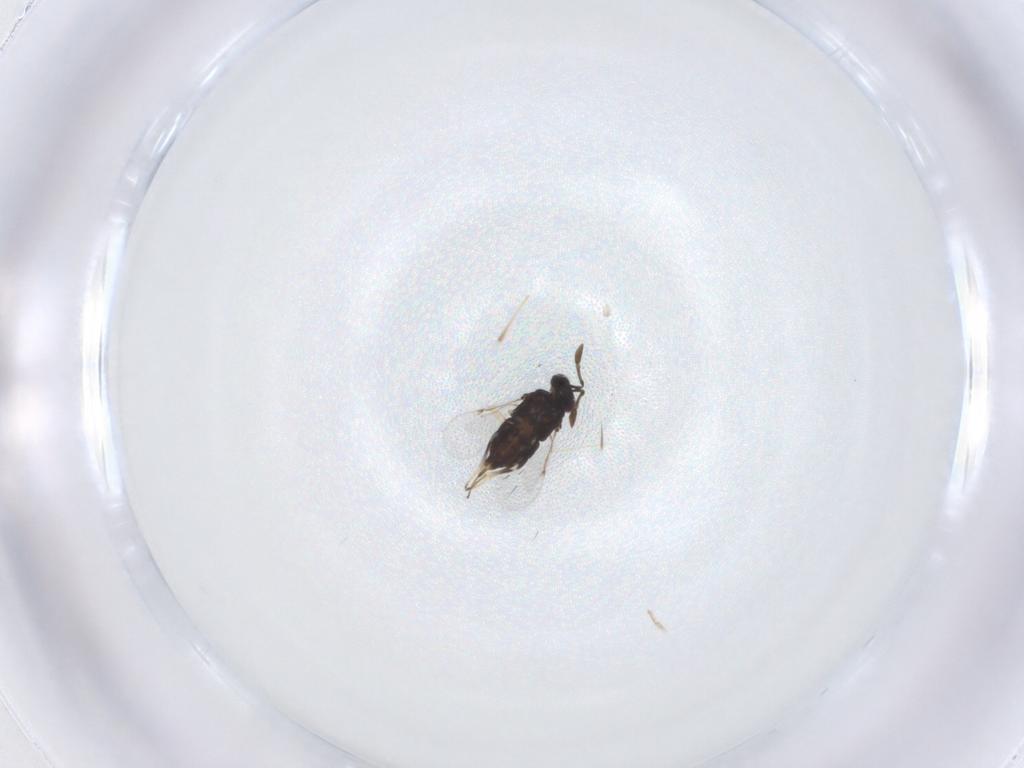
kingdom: Animalia
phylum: Arthropoda
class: Insecta
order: Hymenoptera
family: Encyrtidae
